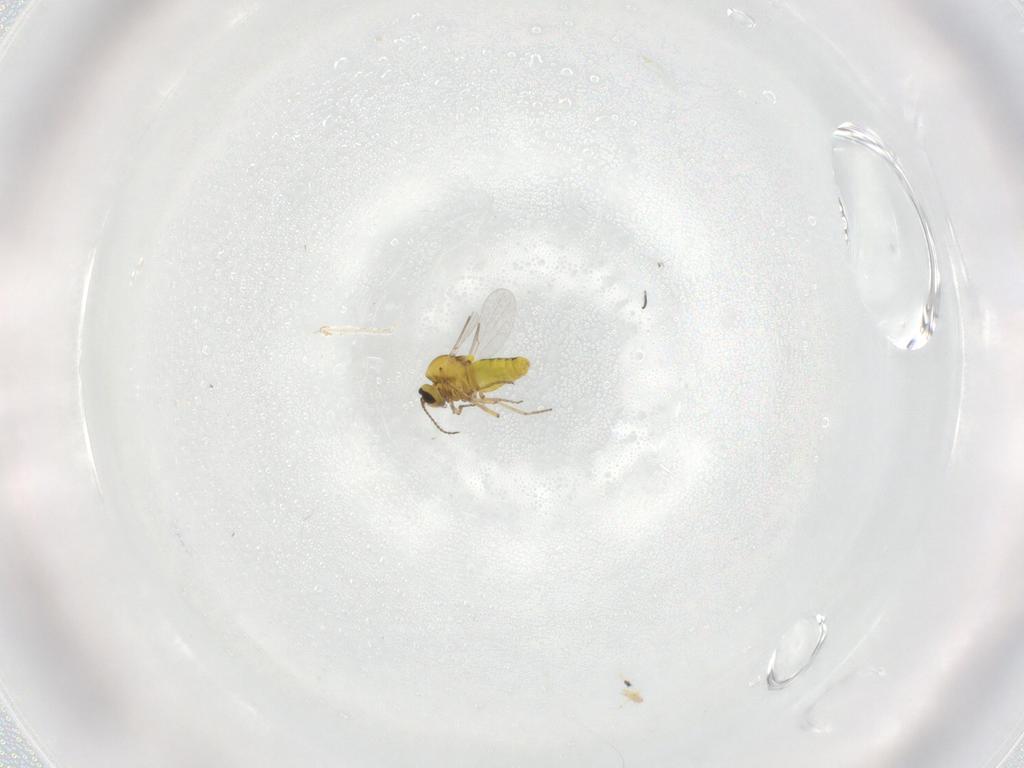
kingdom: Animalia
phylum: Arthropoda
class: Insecta
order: Diptera
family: Ceratopogonidae
